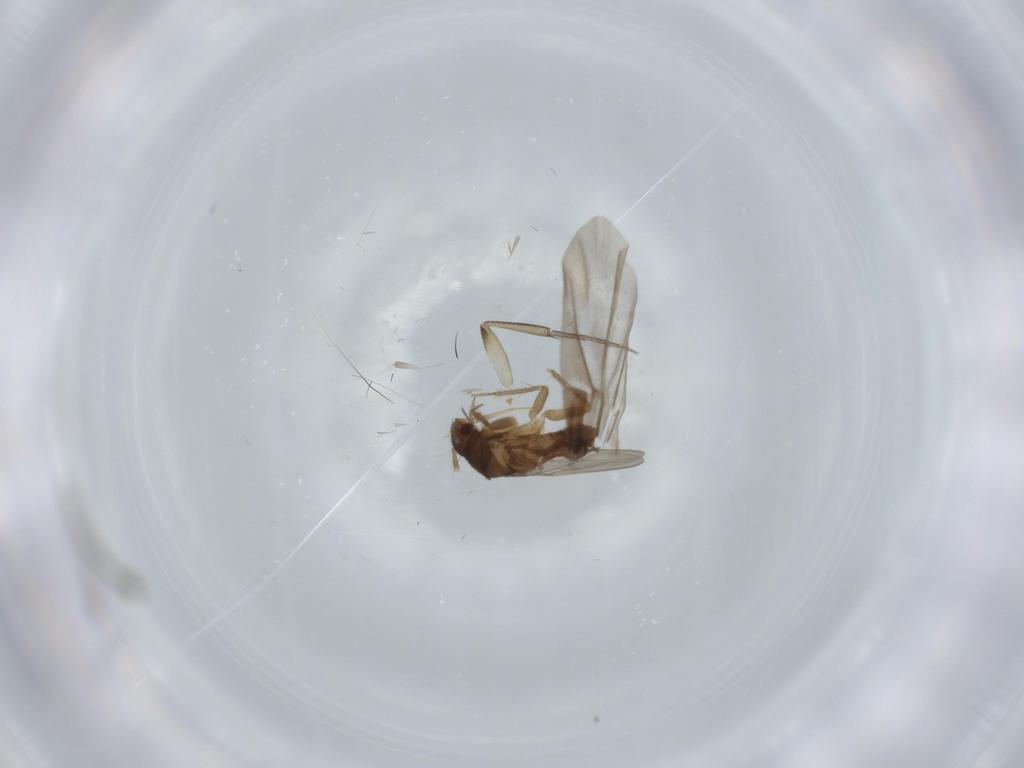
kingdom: Animalia
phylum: Arthropoda
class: Insecta
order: Hemiptera
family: Ceratocombidae
